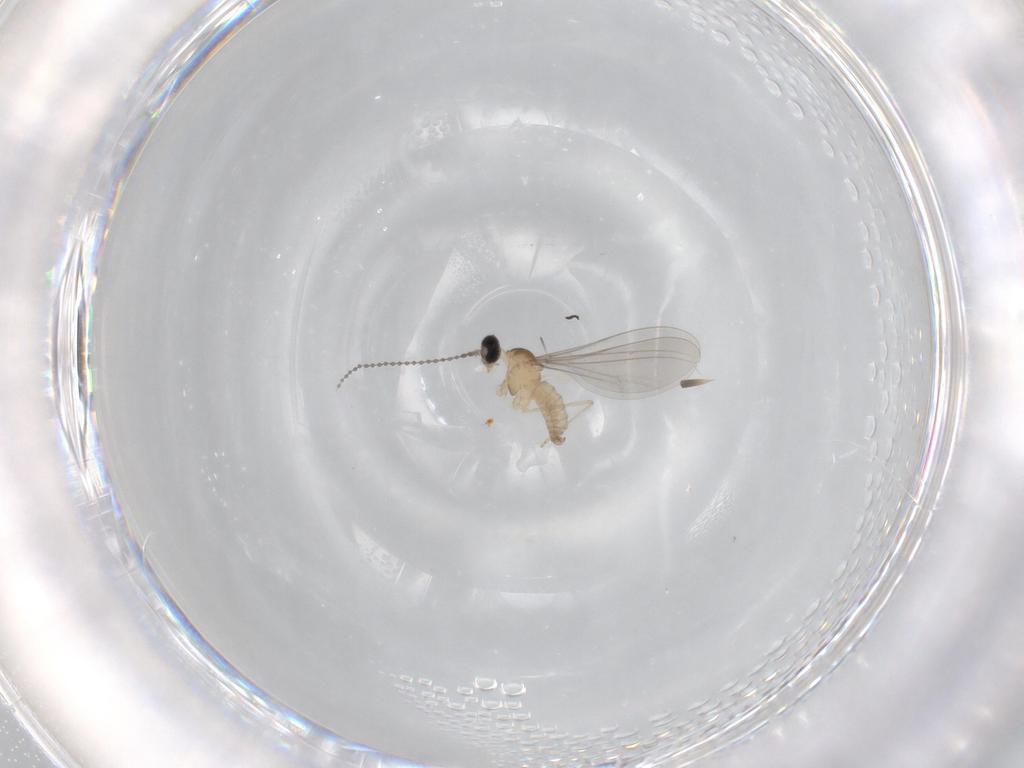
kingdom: Animalia
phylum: Arthropoda
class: Insecta
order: Diptera
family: Cecidomyiidae
